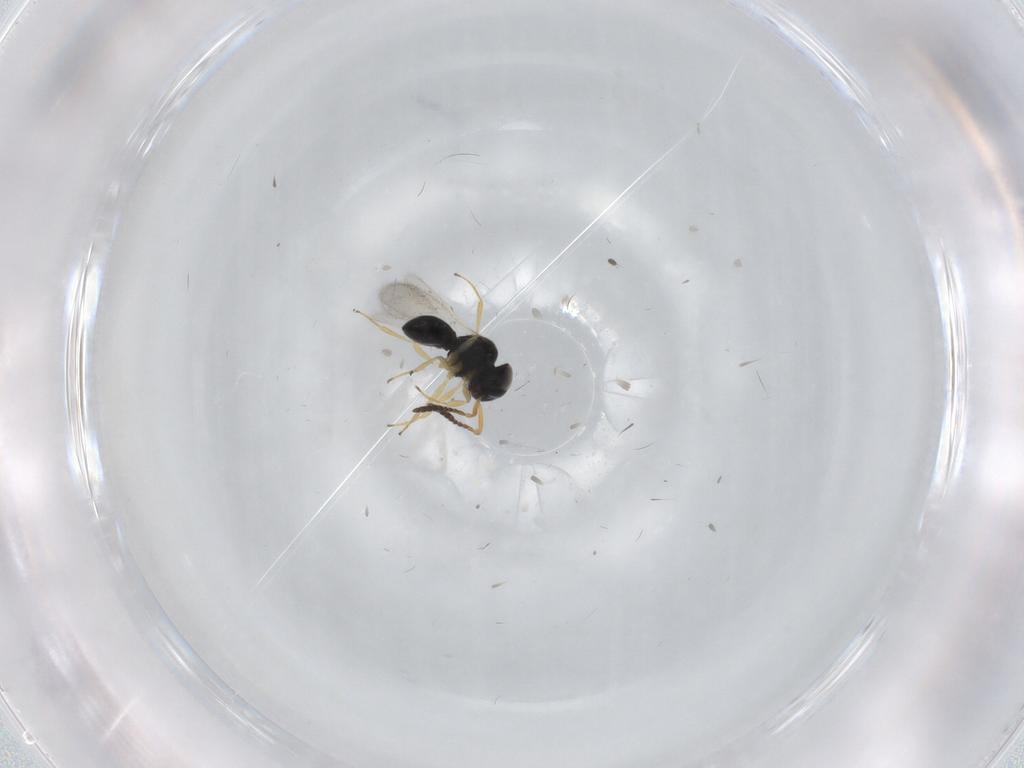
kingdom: Animalia
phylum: Arthropoda
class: Insecta
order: Hymenoptera
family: Scelionidae
